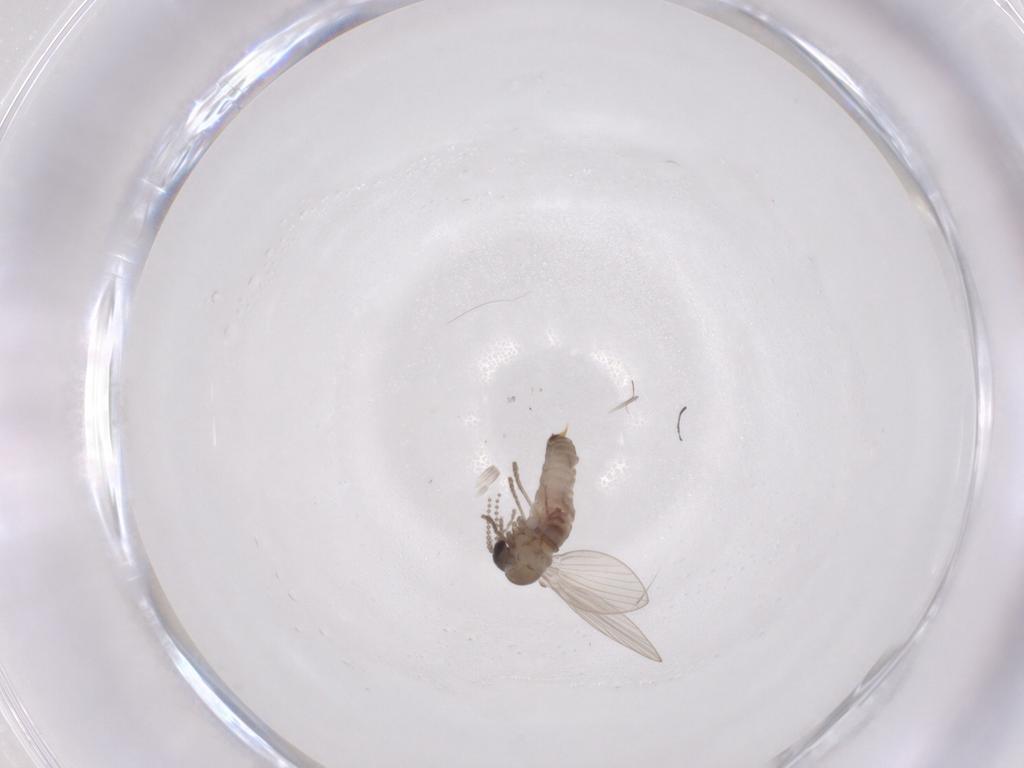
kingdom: Animalia
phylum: Arthropoda
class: Insecta
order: Diptera
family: Psychodidae
